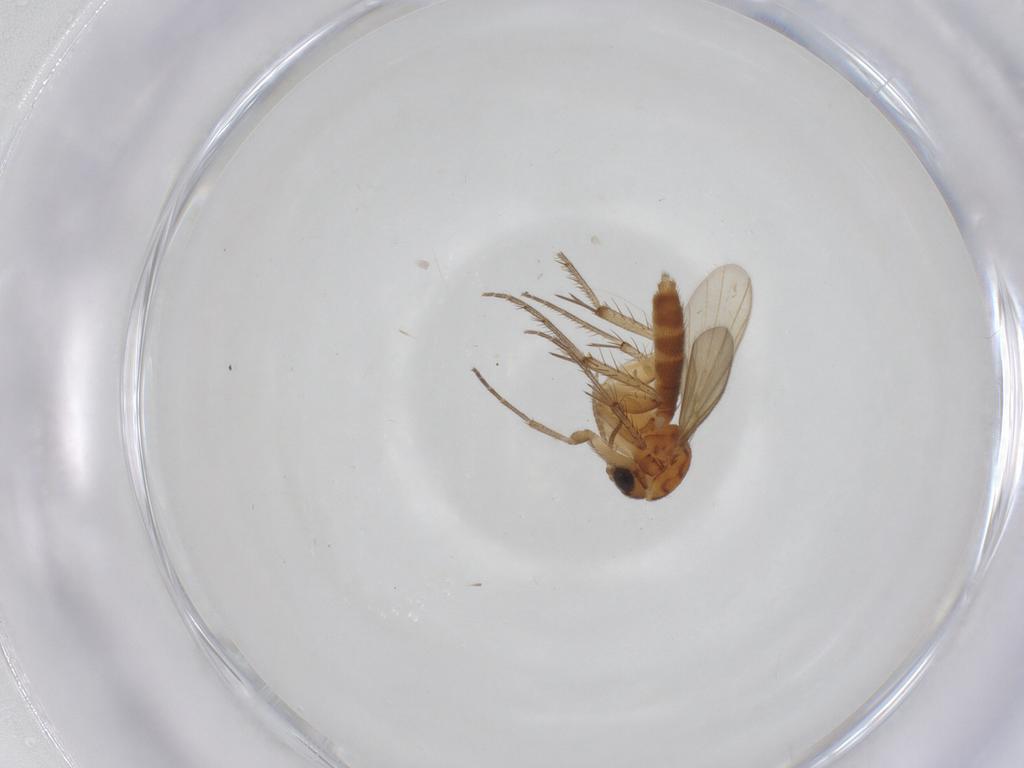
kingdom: Animalia
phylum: Arthropoda
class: Insecta
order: Diptera
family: Mycetophilidae
